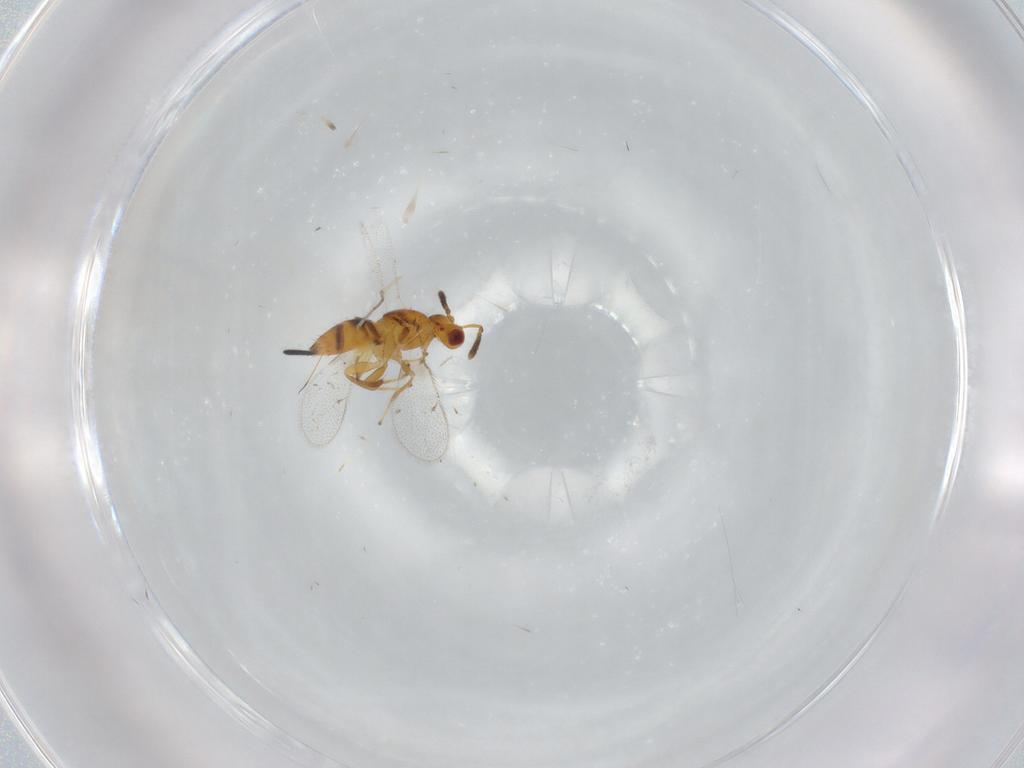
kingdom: Animalia
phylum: Arthropoda
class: Insecta
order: Hymenoptera
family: Torymidae
